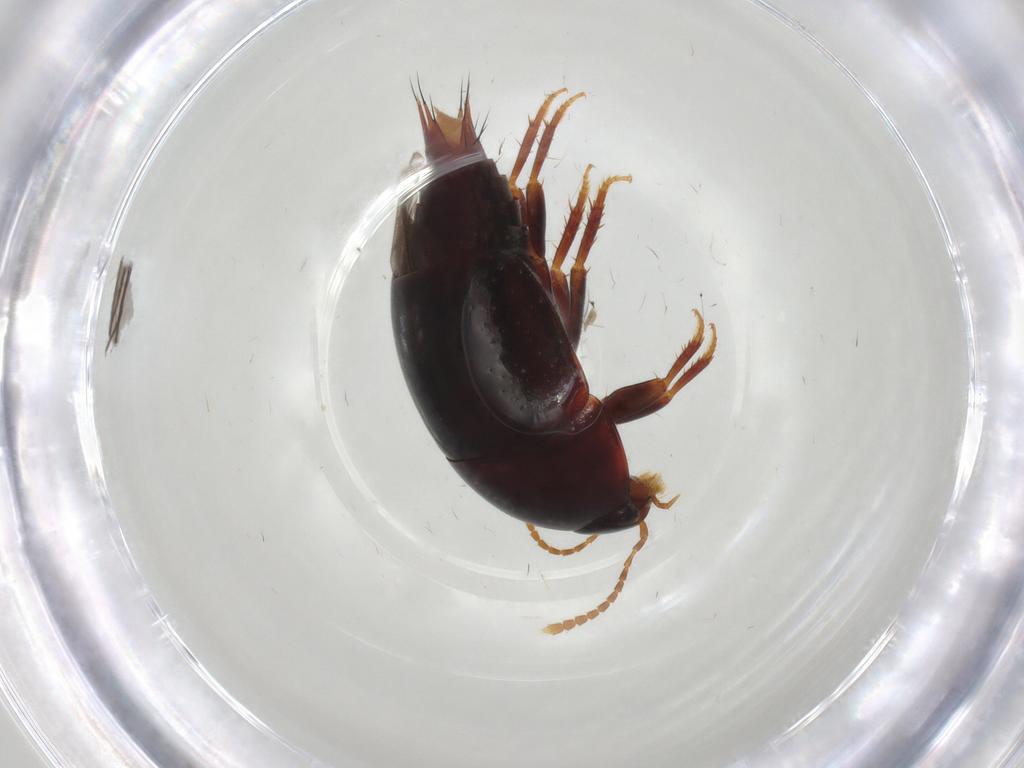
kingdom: Animalia
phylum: Arthropoda
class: Insecta
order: Coleoptera
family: Staphylinidae
